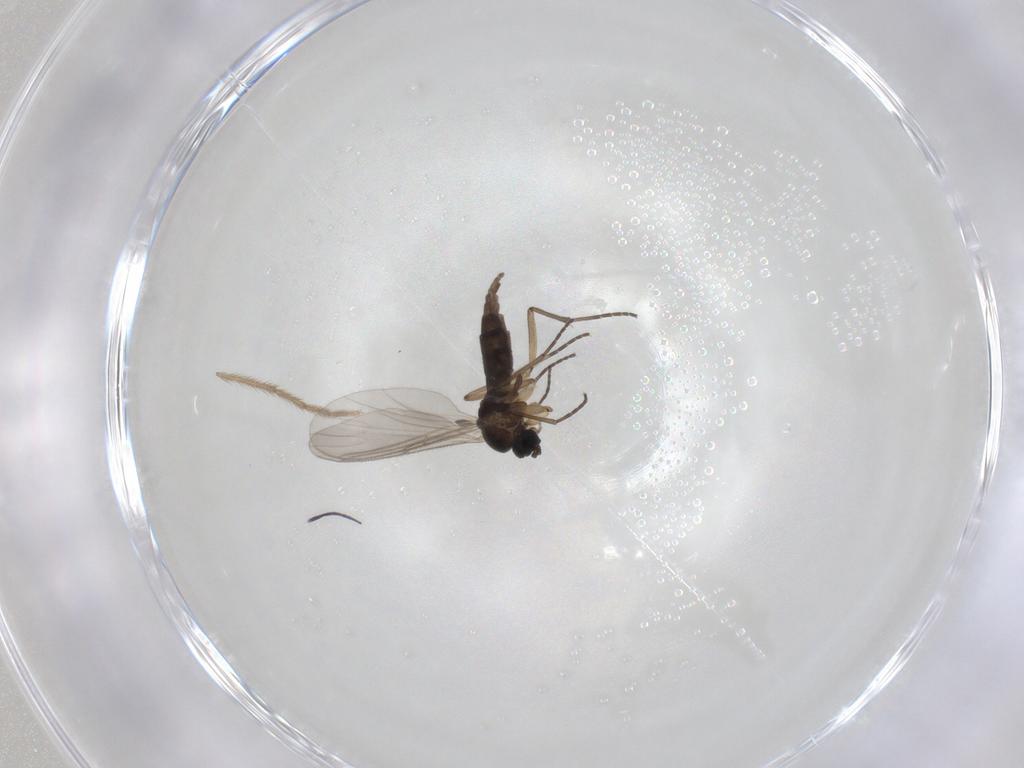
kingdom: Animalia
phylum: Arthropoda
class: Insecta
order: Diptera
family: Sciaridae
